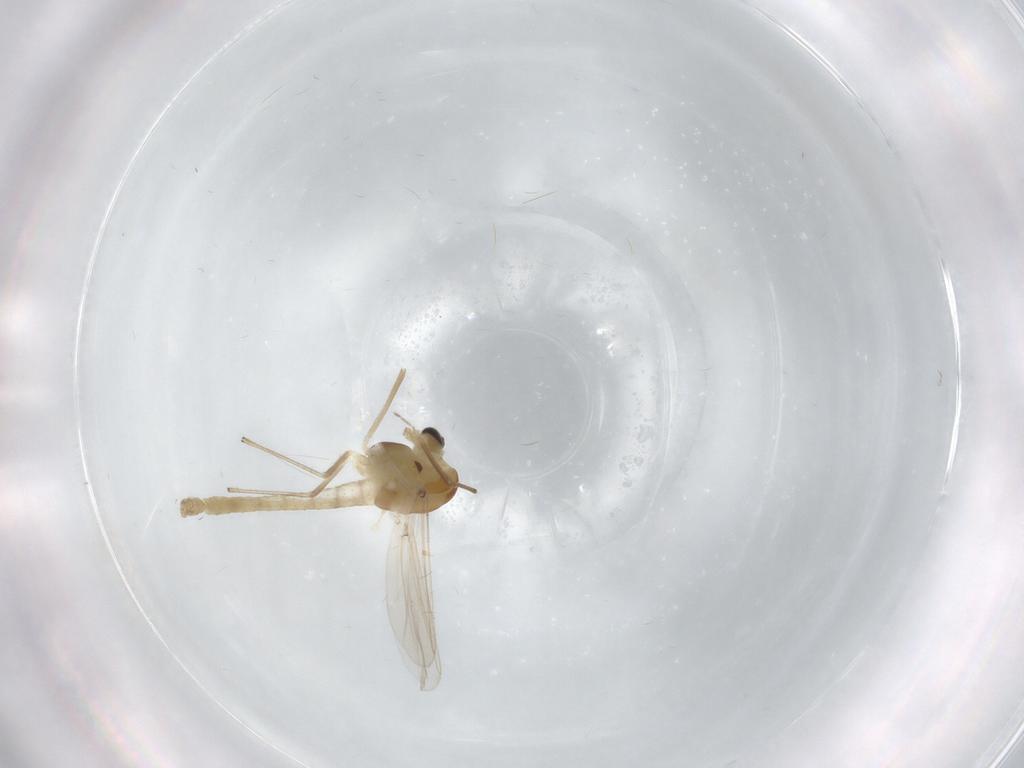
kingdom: Animalia
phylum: Arthropoda
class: Insecta
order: Diptera
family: Chironomidae
